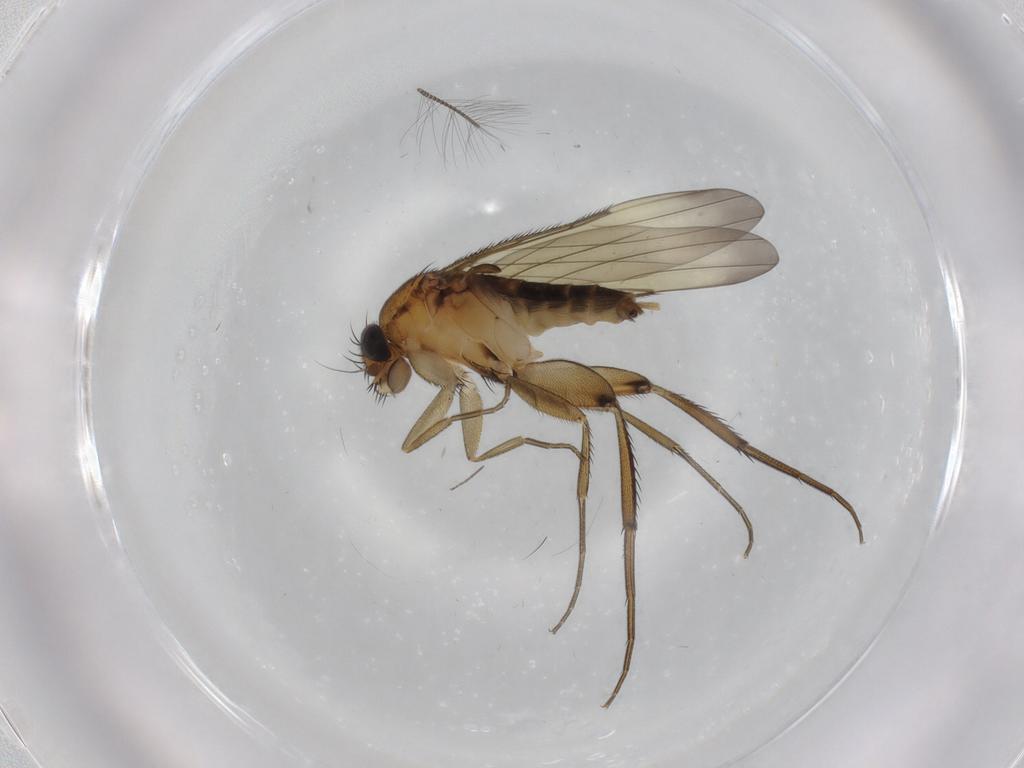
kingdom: Animalia
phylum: Arthropoda
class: Insecta
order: Diptera
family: Phoridae
